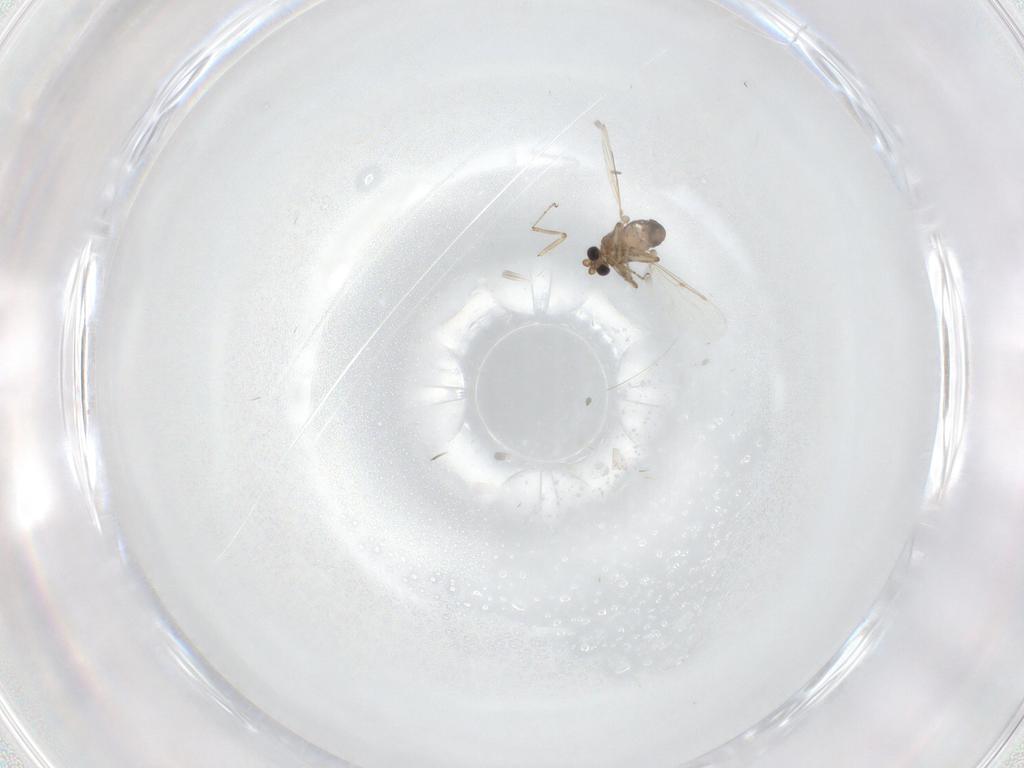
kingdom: Animalia
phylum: Arthropoda
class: Insecta
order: Diptera
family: Ceratopogonidae
